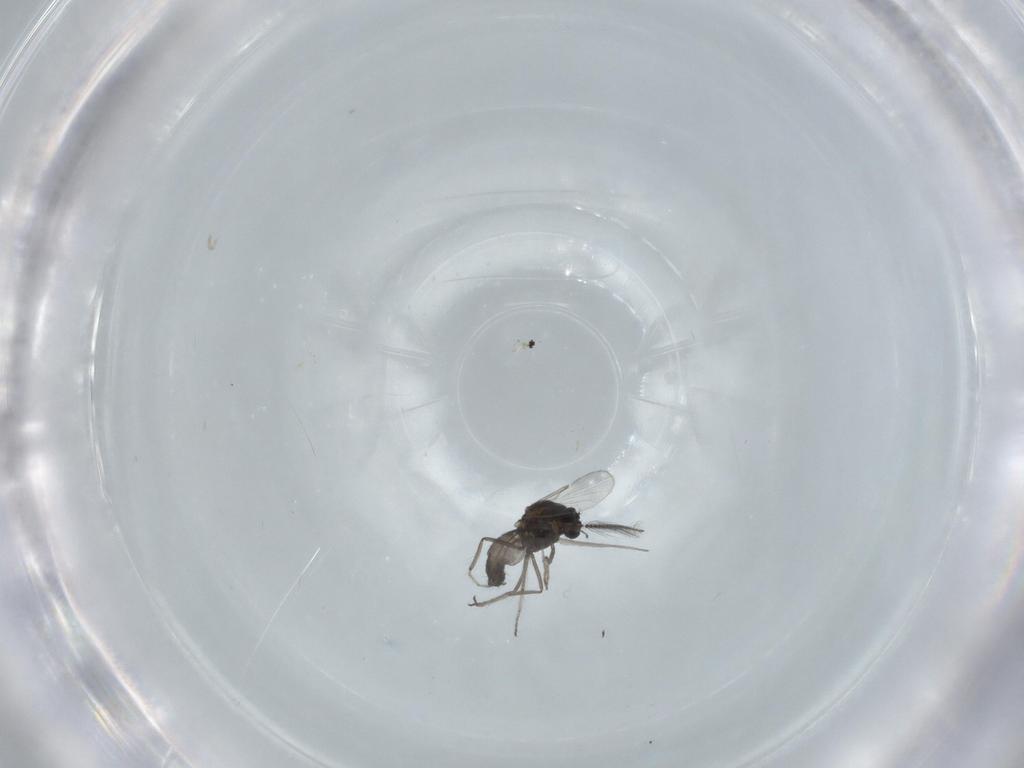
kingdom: Animalia
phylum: Arthropoda
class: Insecta
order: Diptera
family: Ceratopogonidae
